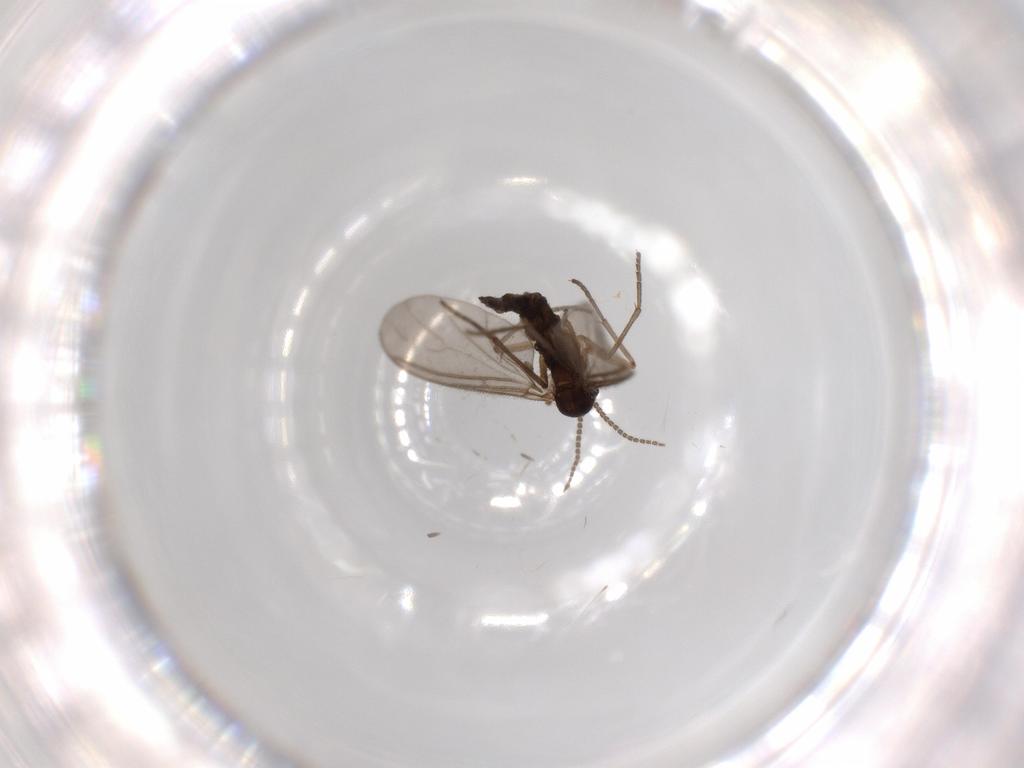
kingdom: Animalia
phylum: Arthropoda
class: Insecta
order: Diptera
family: Sciaridae
